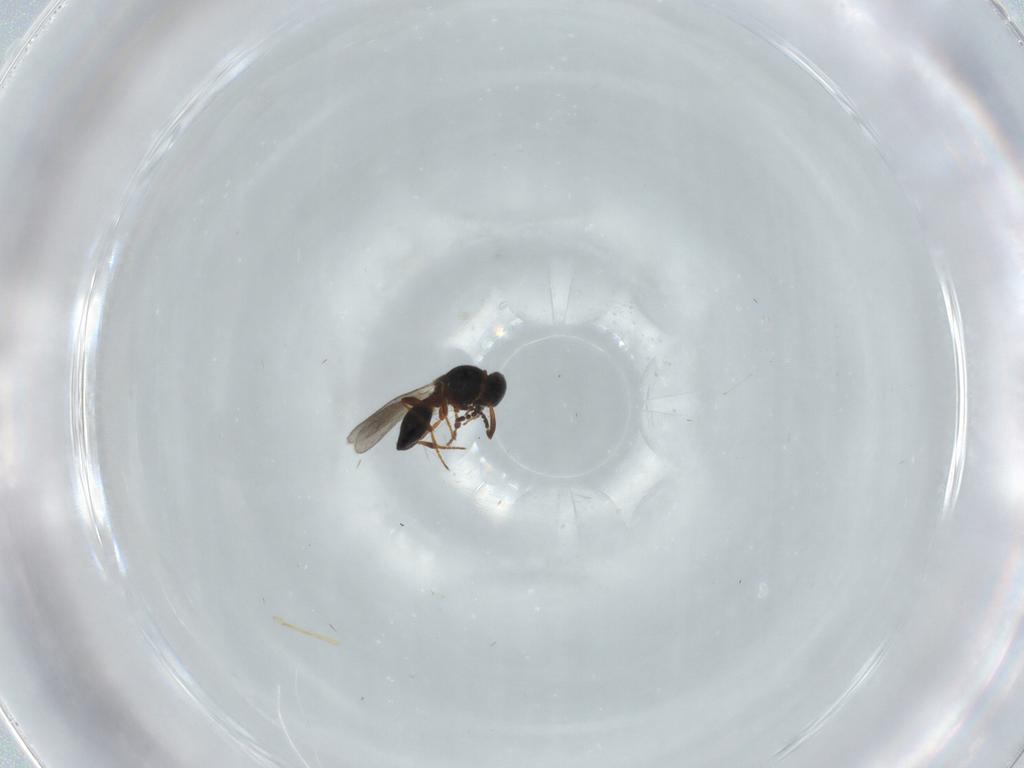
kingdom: Animalia
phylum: Arthropoda
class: Insecta
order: Hymenoptera
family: Platygastridae
